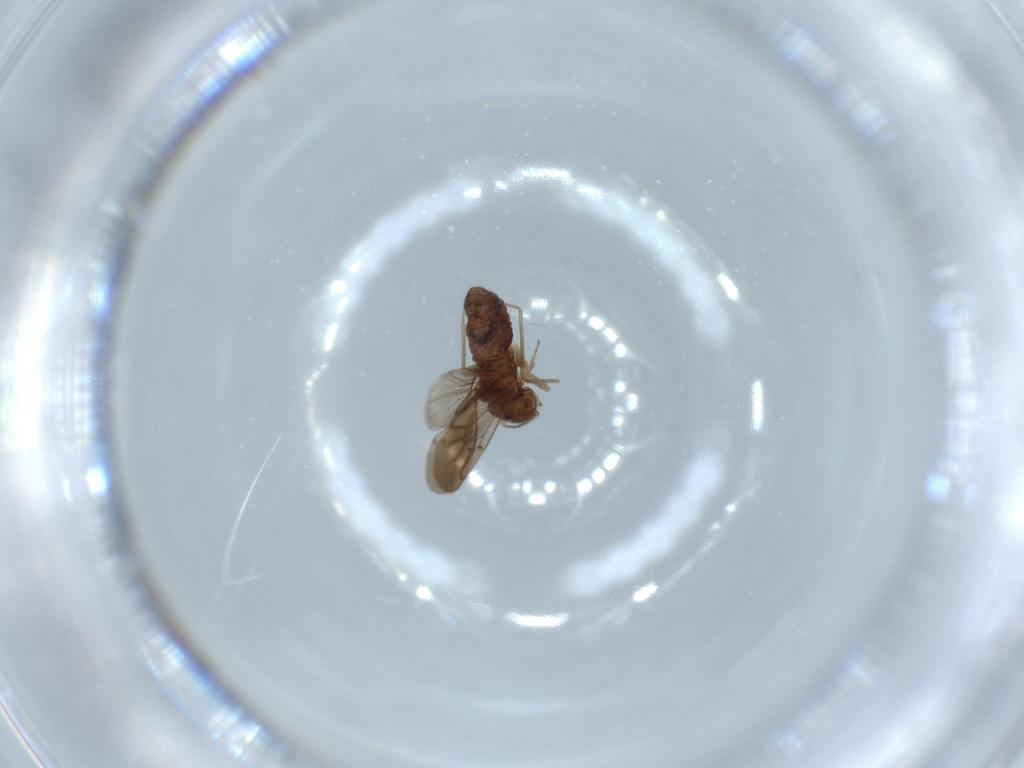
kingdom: Animalia
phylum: Arthropoda
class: Insecta
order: Psocodea
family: Ectopsocidae
